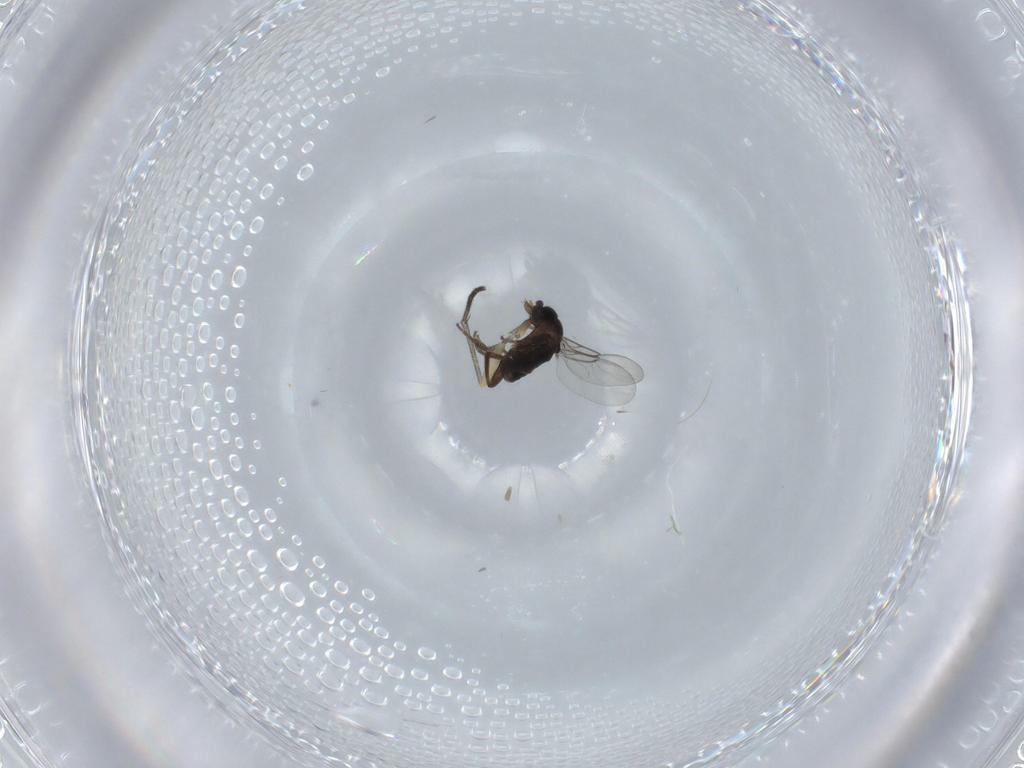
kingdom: Animalia
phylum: Arthropoda
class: Insecta
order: Diptera
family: Phoridae
